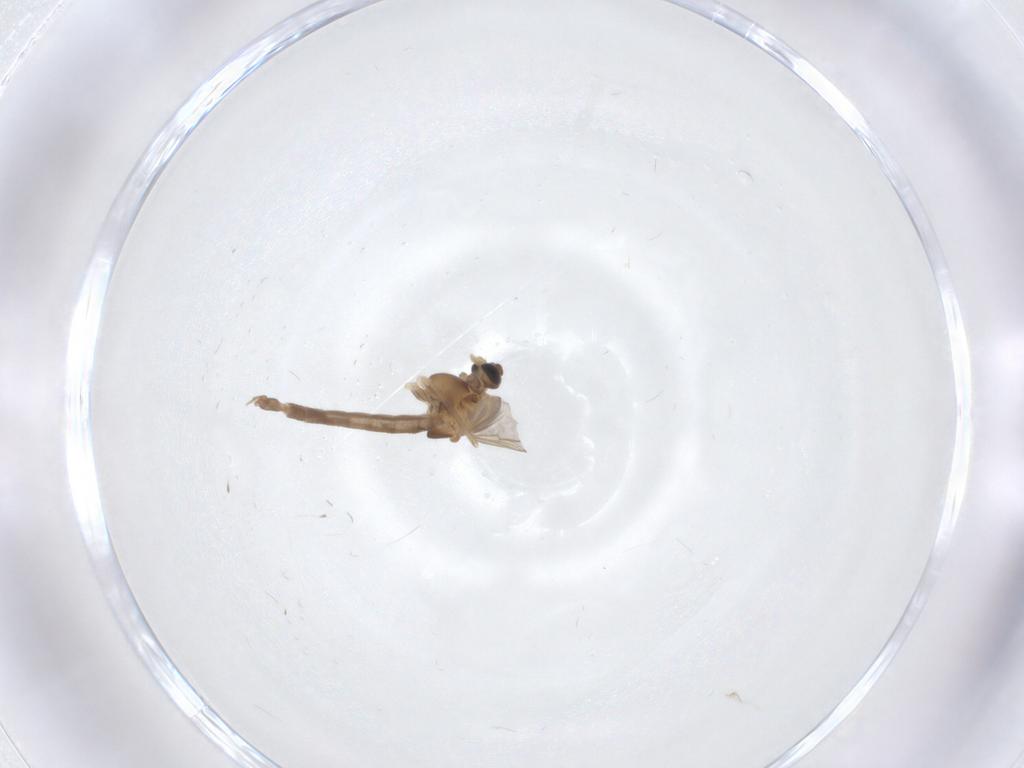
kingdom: Animalia
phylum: Arthropoda
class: Insecta
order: Diptera
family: Chironomidae
